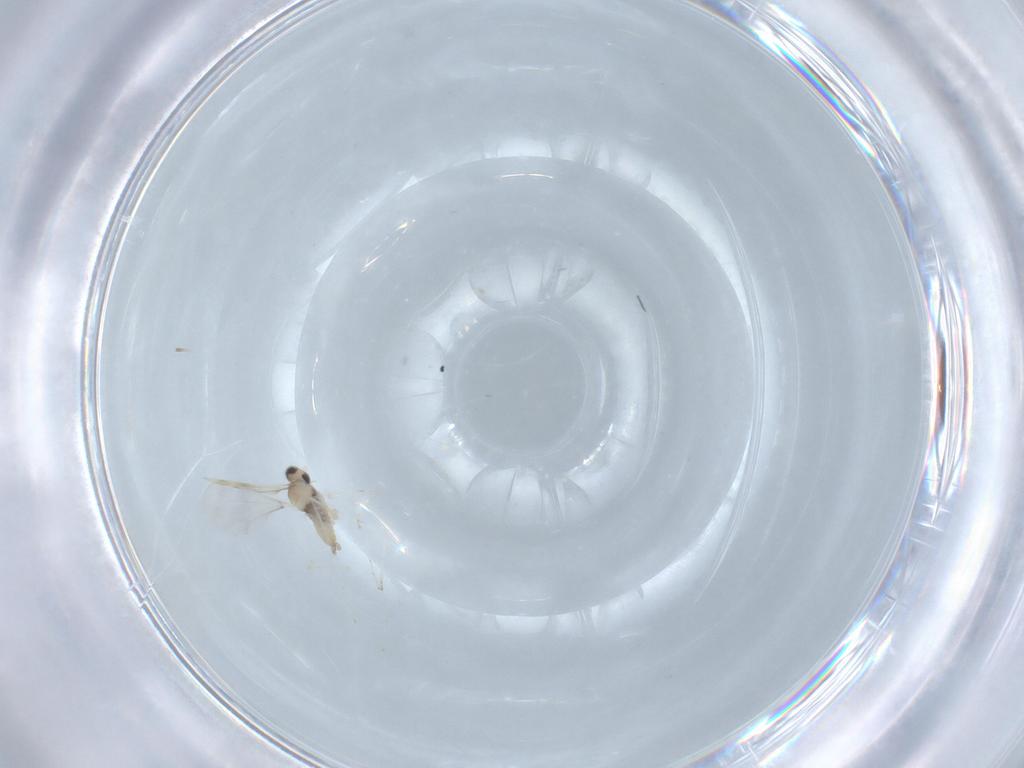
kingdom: Animalia
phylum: Arthropoda
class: Insecta
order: Diptera
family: Cecidomyiidae
